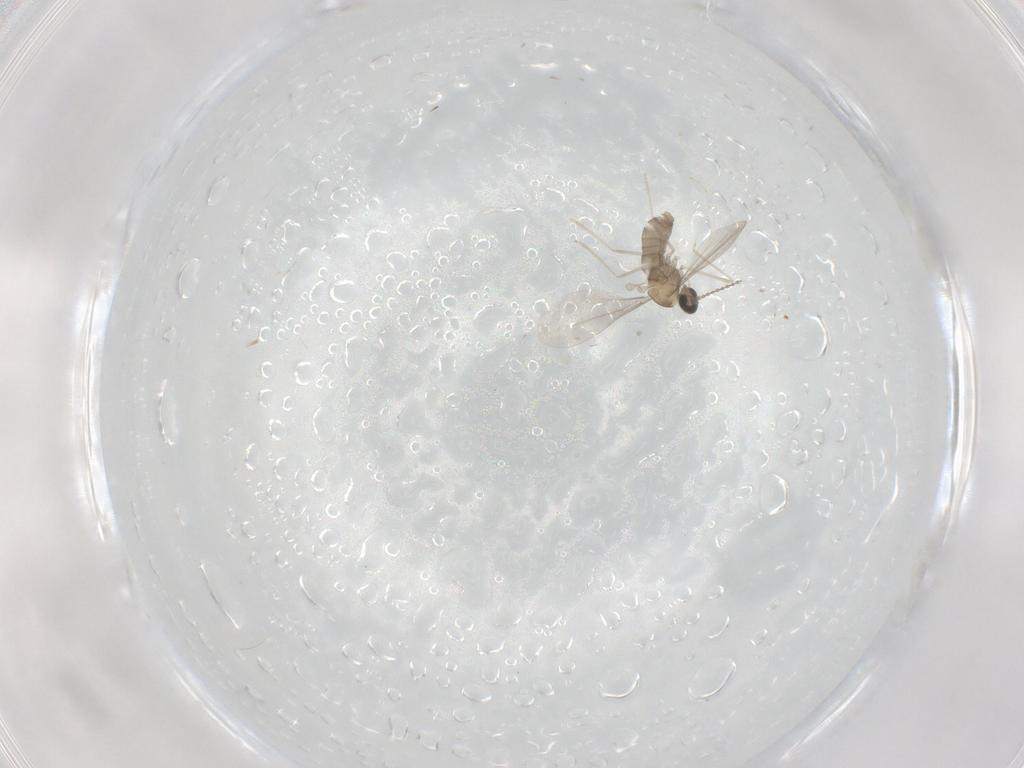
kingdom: Animalia
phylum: Arthropoda
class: Insecta
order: Diptera
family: Cecidomyiidae
